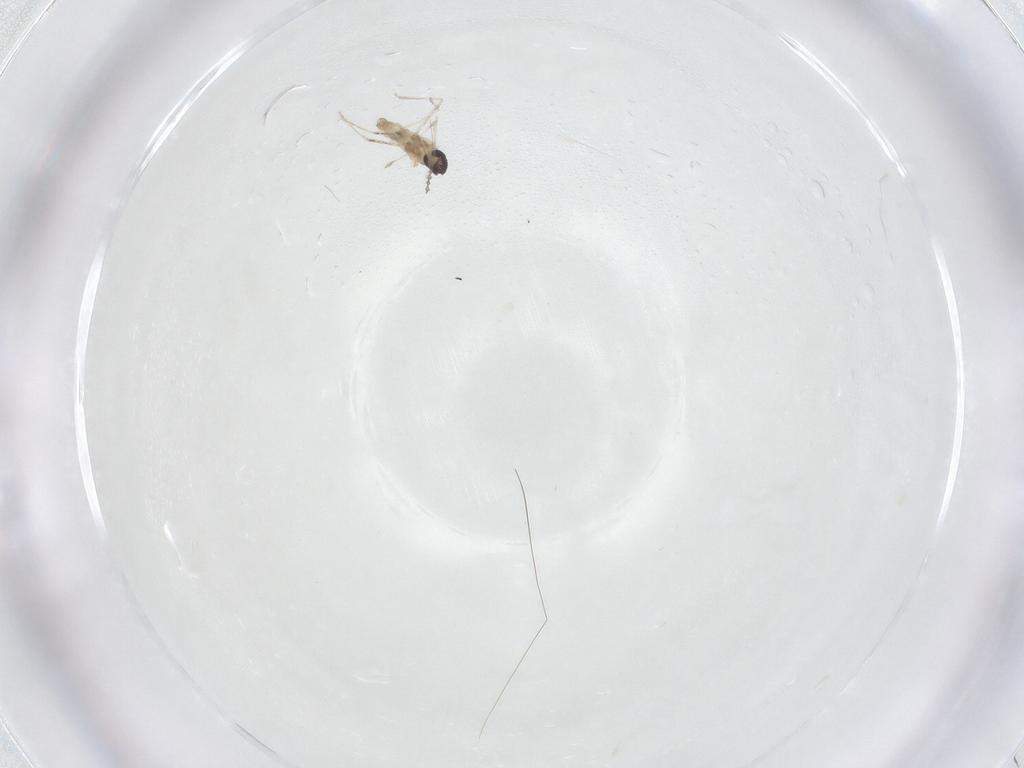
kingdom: Animalia
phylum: Arthropoda
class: Insecta
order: Diptera
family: Cecidomyiidae
